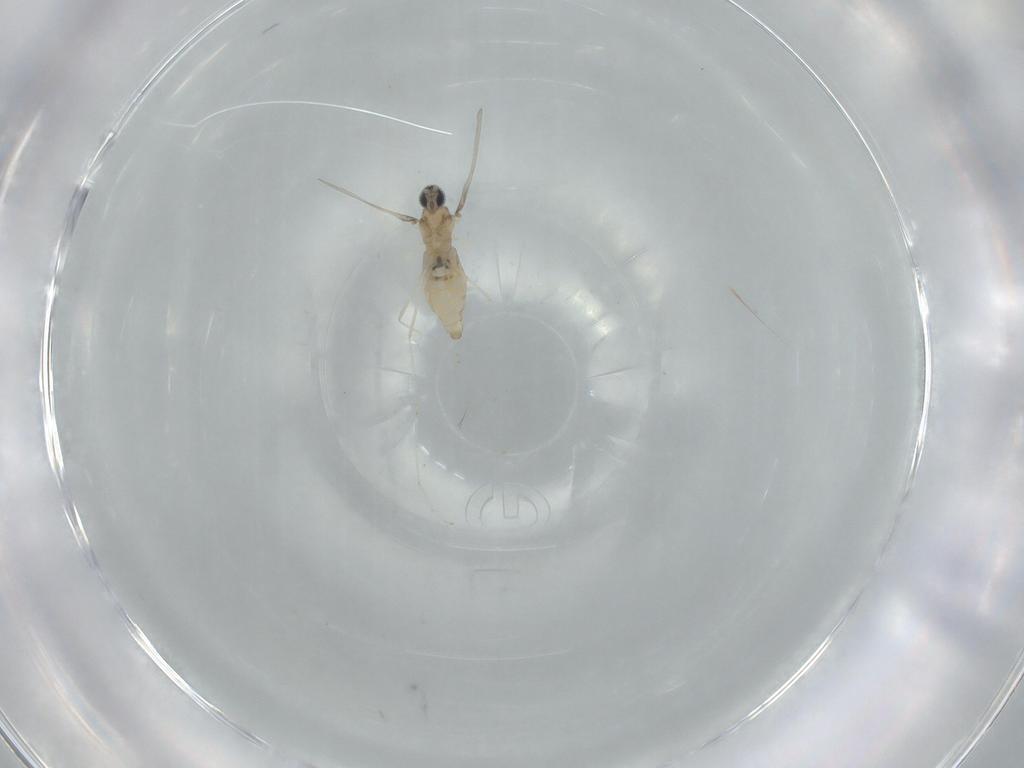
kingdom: Animalia
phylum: Arthropoda
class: Insecta
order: Diptera
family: Cecidomyiidae
